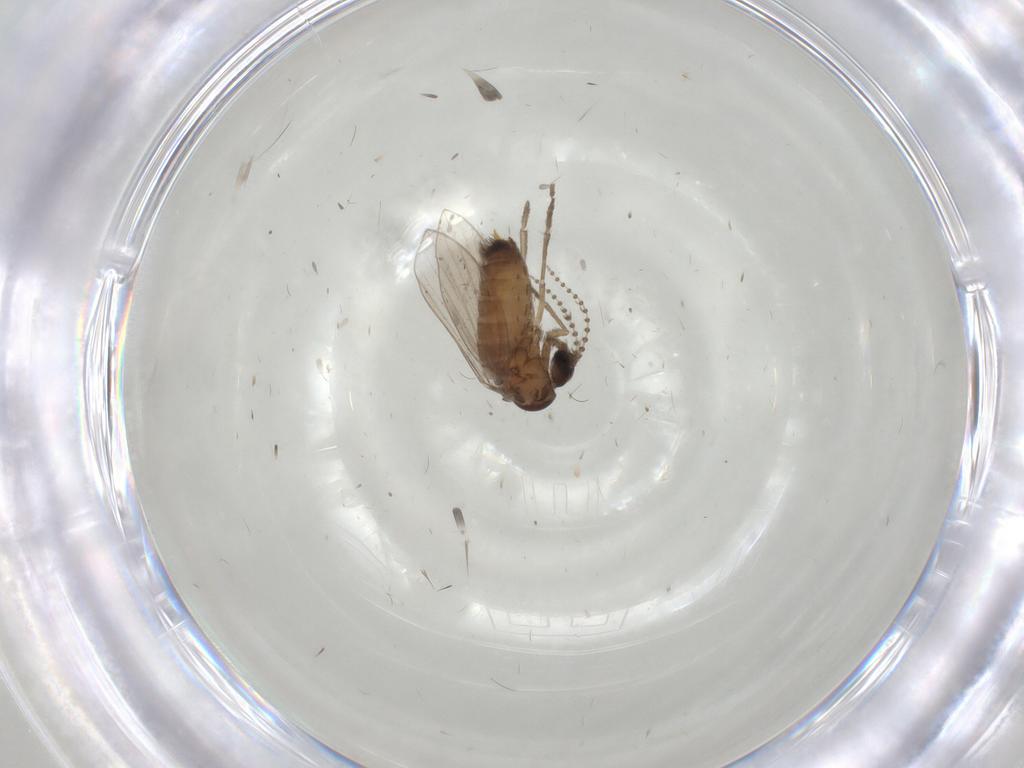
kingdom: Animalia
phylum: Arthropoda
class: Insecta
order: Diptera
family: Psychodidae
